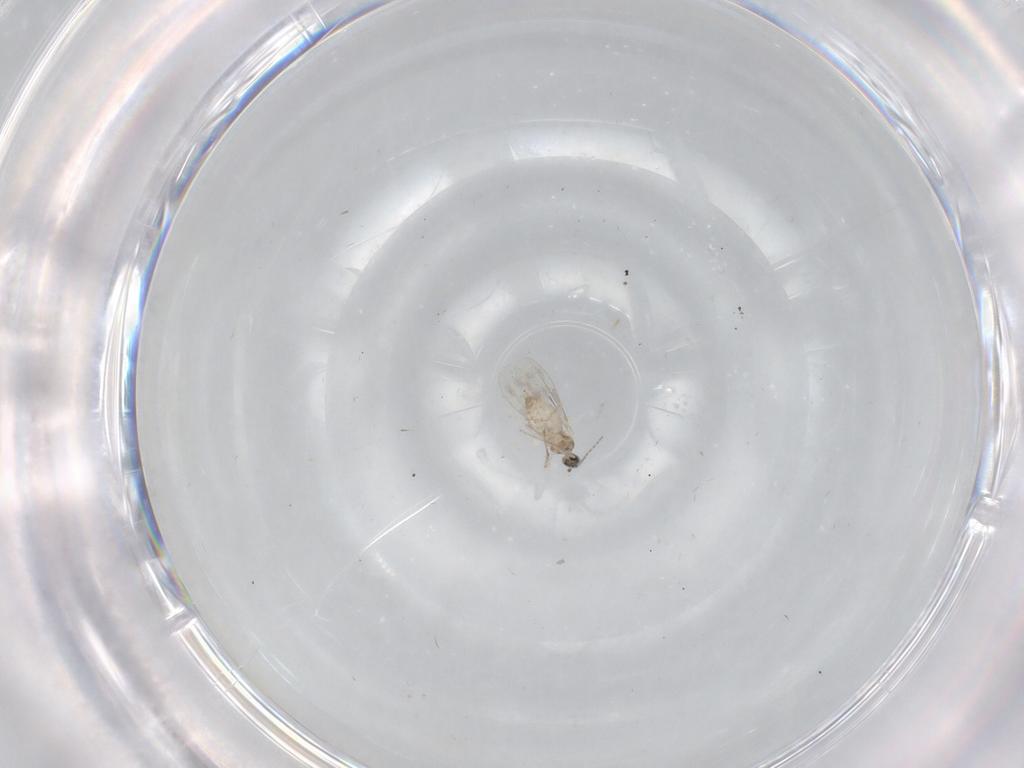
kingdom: Animalia
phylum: Arthropoda
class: Insecta
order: Diptera
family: Cecidomyiidae
